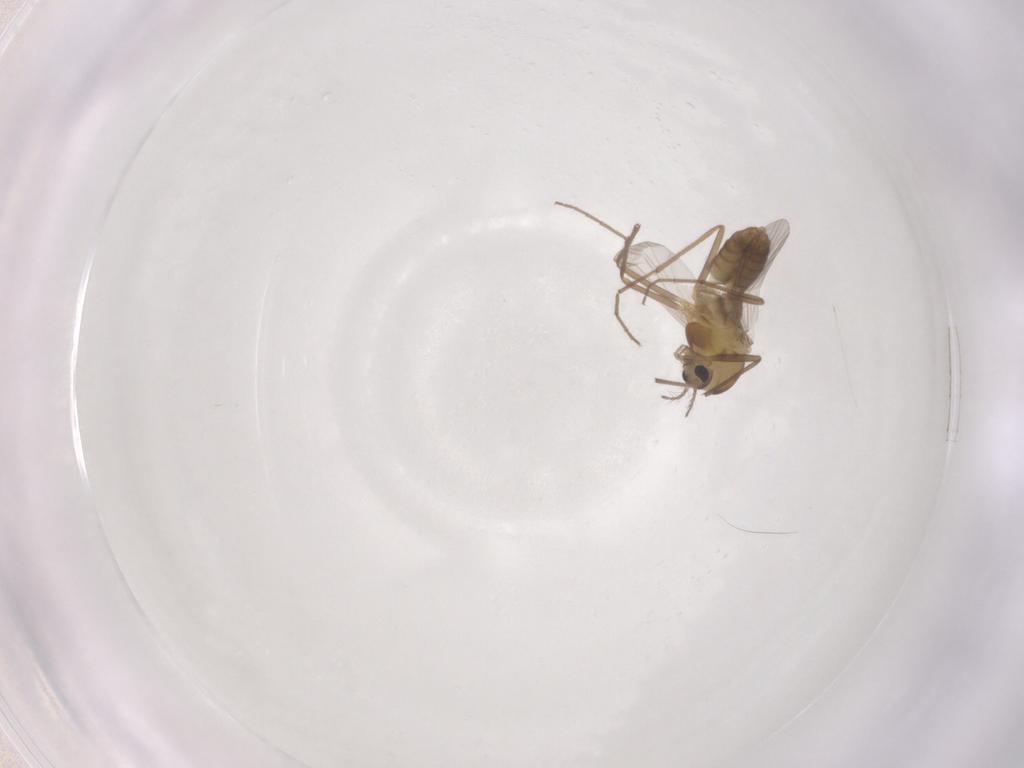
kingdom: Animalia
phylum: Arthropoda
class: Insecta
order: Diptera
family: Chironomidae
